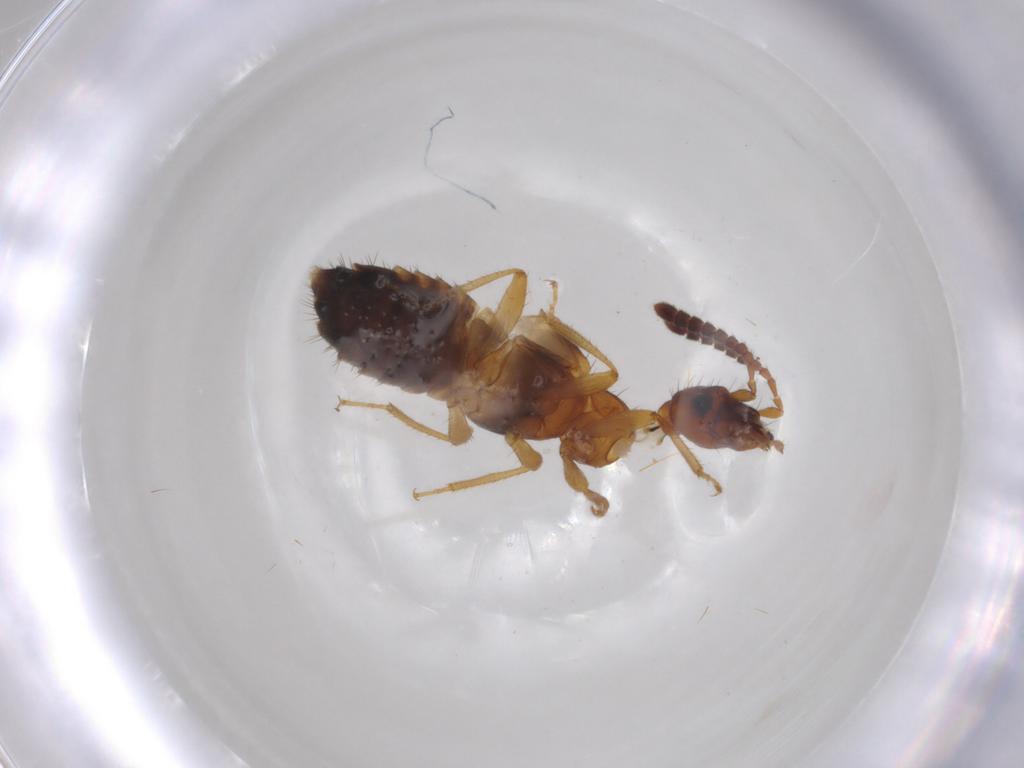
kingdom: Animalia
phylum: Arthropoda
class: Insecta
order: Coleoptera
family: Staphylinidae
